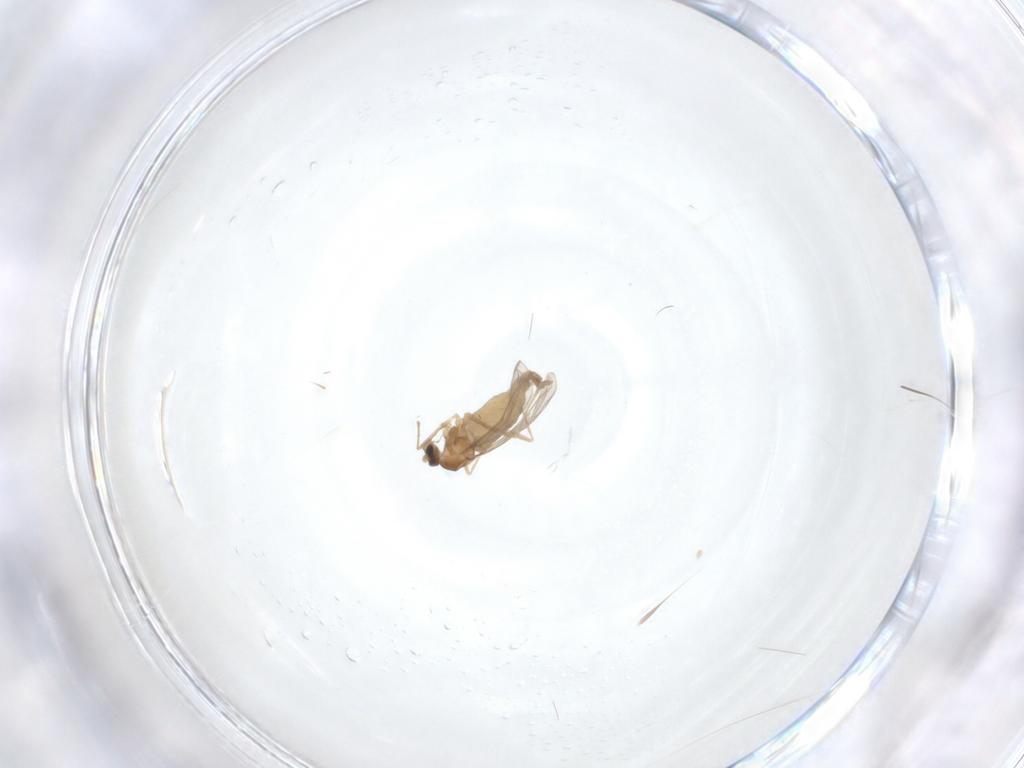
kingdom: Animalia
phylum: Arthropoda
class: Insecta
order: Diptera
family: Cecidomyiidae
